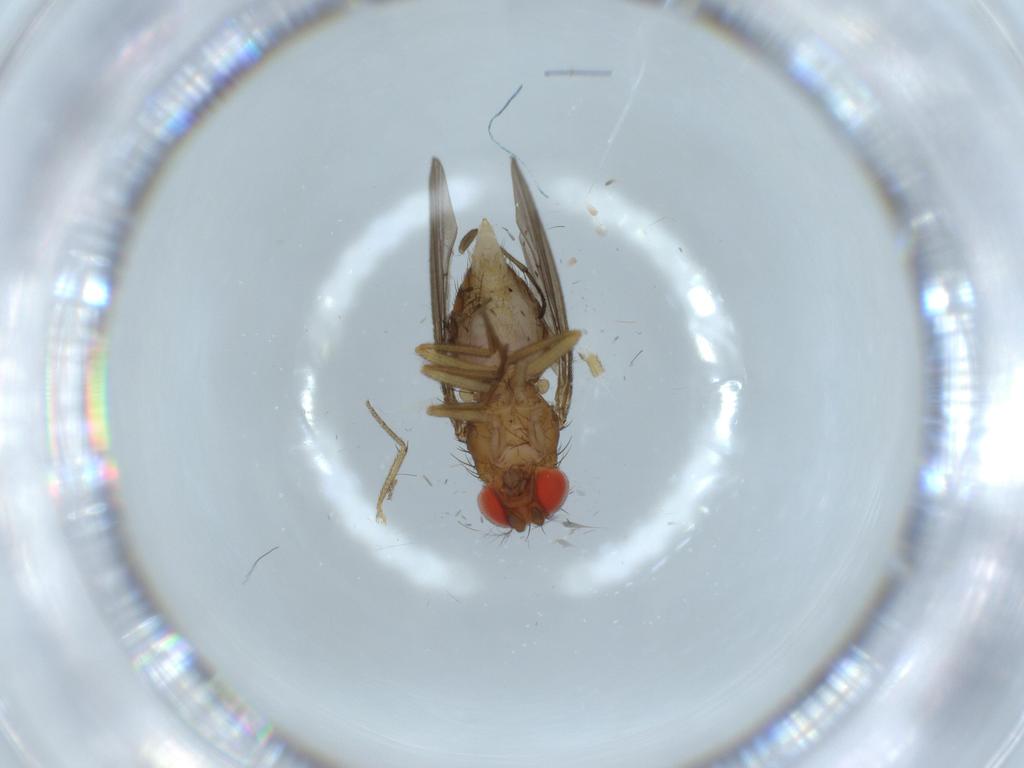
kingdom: Animalia
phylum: Arthropoda
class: Insecta
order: Diptera
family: Drosophilidae
